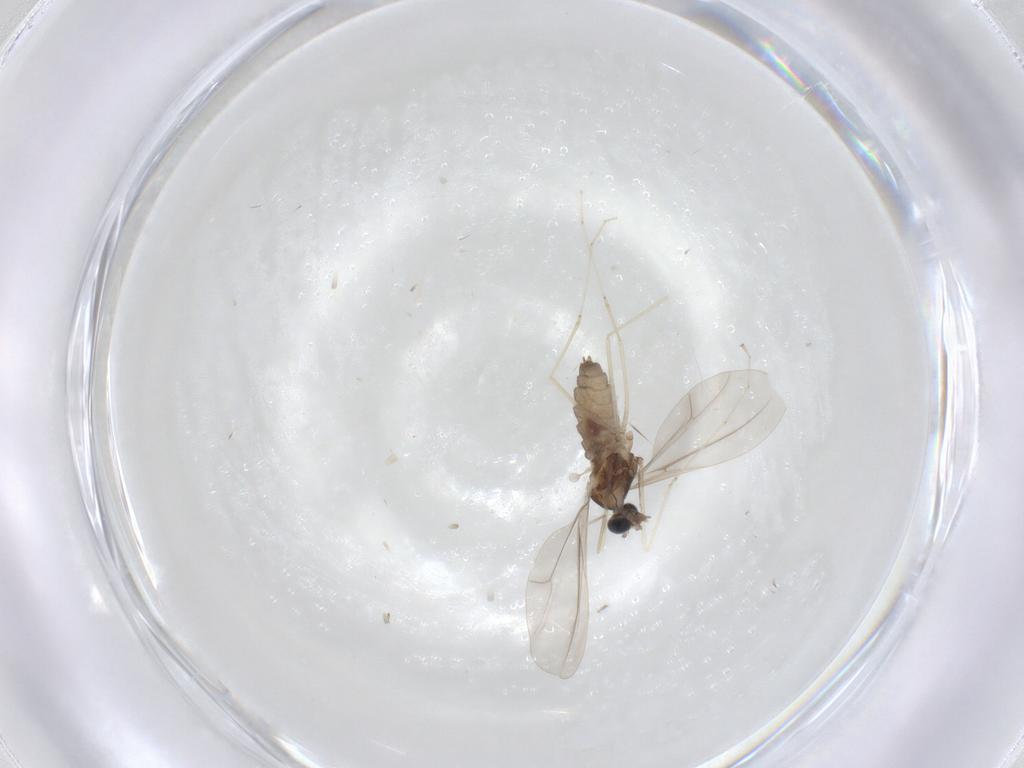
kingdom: Animalia
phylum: Arthropoda
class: Insecta
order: Diptera
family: Cecidomyiidae
